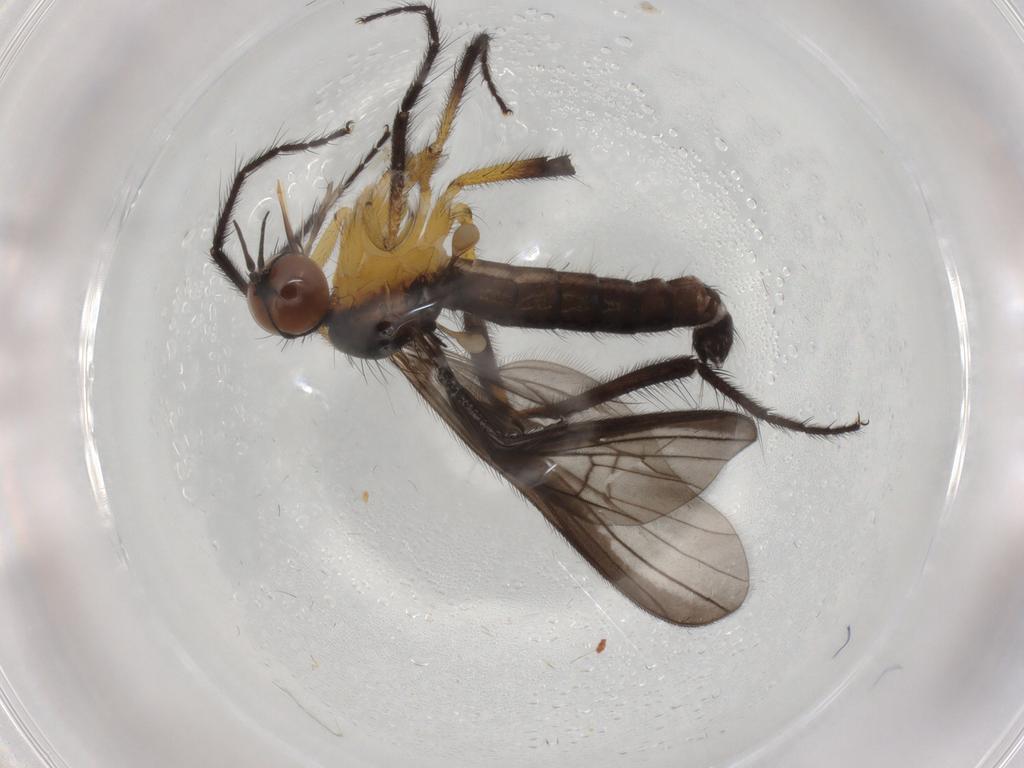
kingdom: Animalia
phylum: Arthropoda
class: Insecta
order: Diptera
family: Empididae
